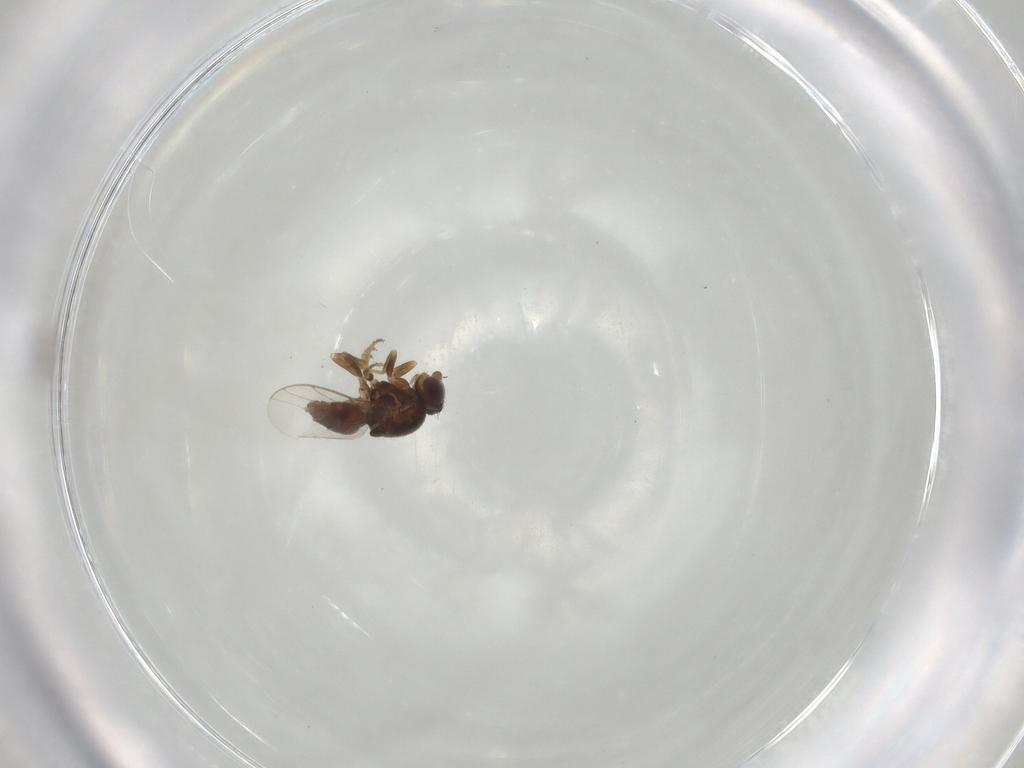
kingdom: Animalia
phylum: Arthropoda
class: Insecta
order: Diptera
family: Chloropidae
